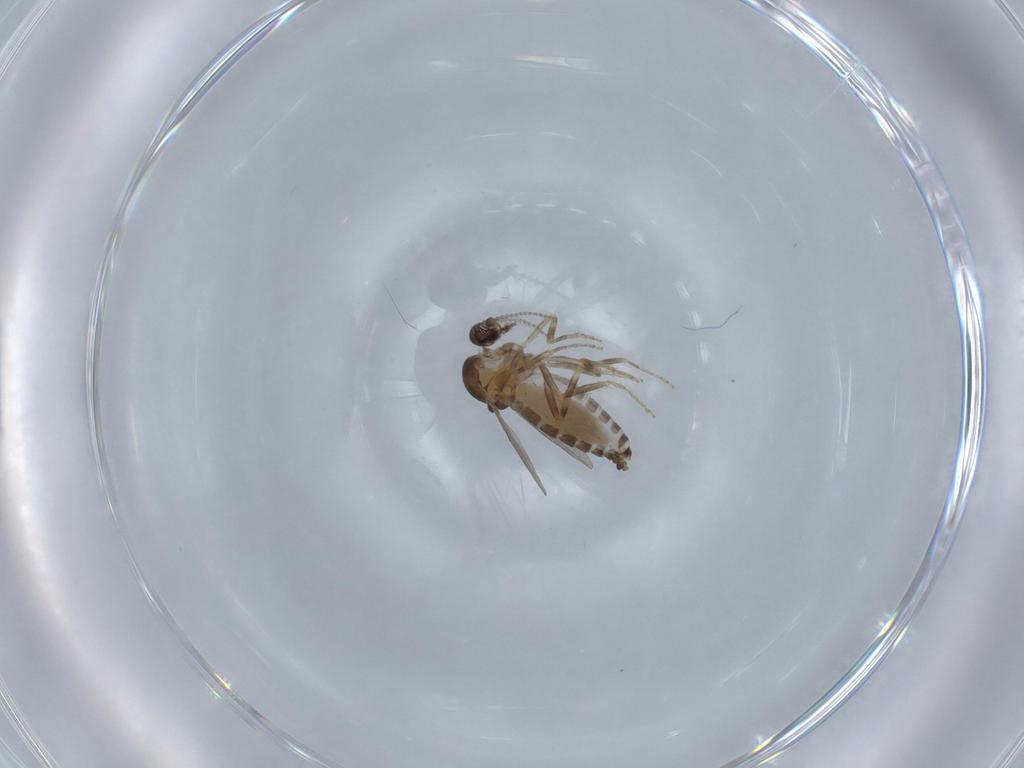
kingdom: Animalia
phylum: Arthropoda
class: Insecta
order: Diptera
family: Ceratopogonidae
